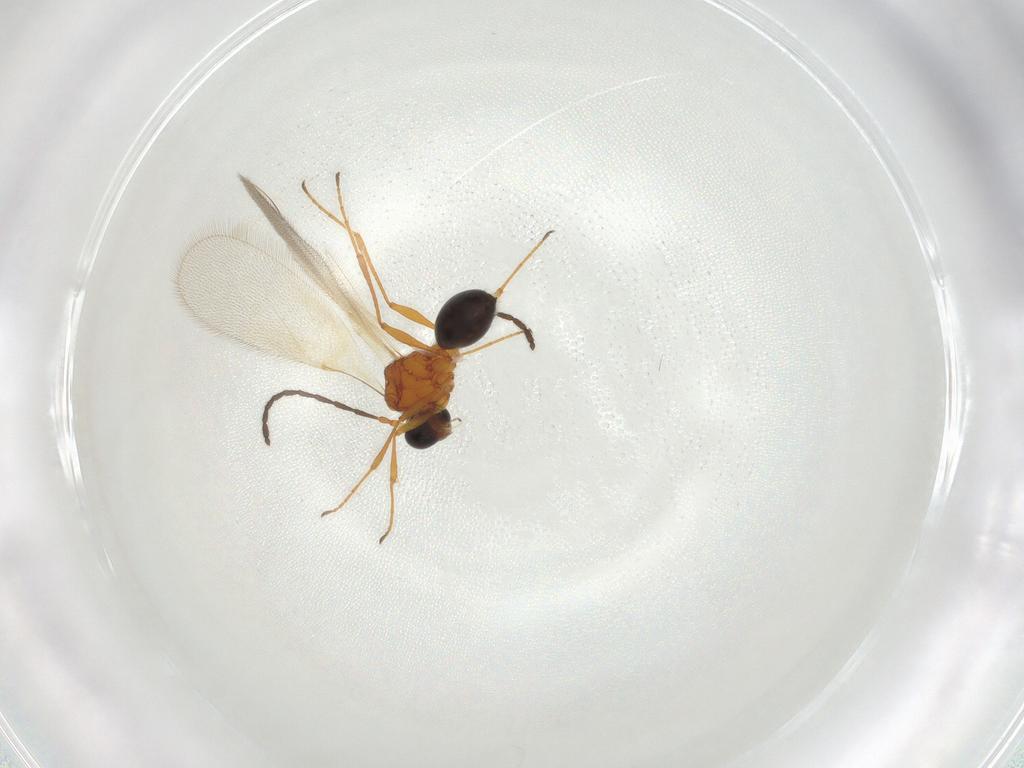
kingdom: Animalia
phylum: Arthropoda
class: Insecta
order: Hymenoptera
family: Diapriidae
